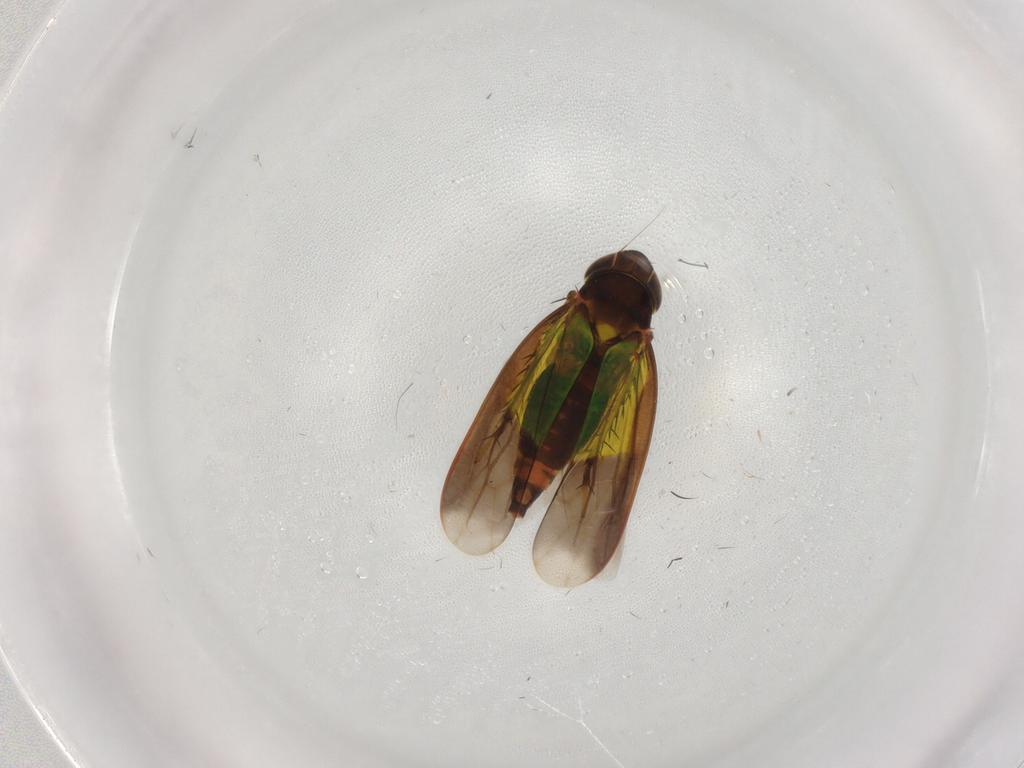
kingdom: Animalia
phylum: Arthropoda
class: Insecta
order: Hemiptera
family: Cicadellidae
